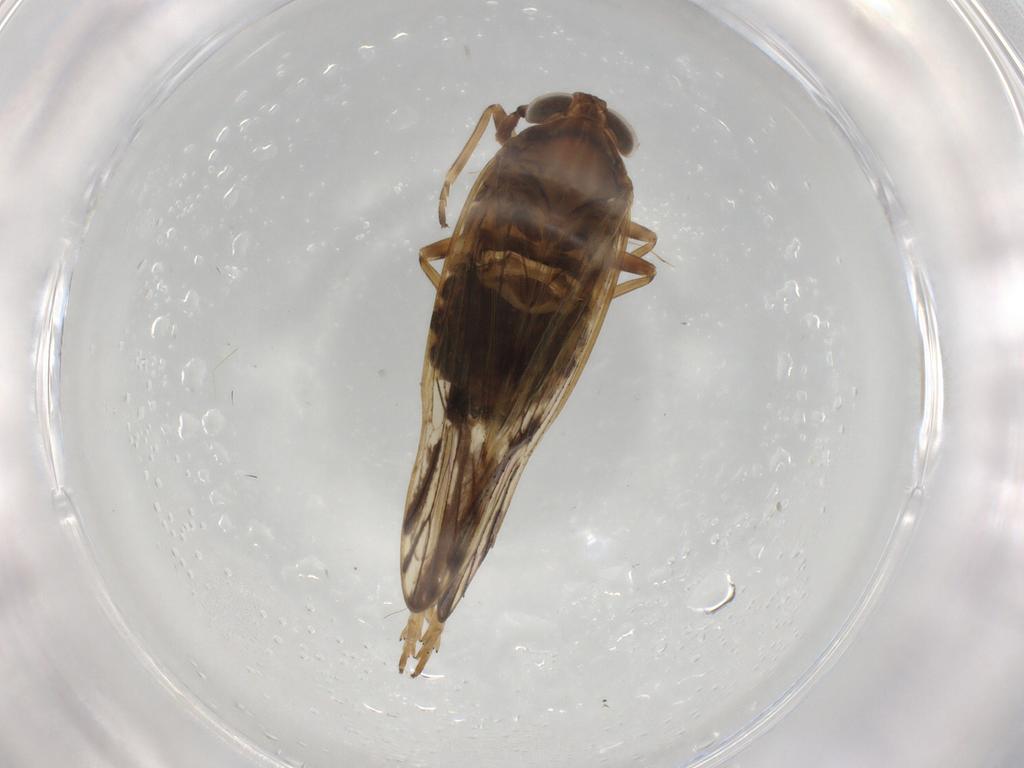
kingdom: Animalia
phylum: Arthropoda
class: Insecta
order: Hemiptera
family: Delphacidae
